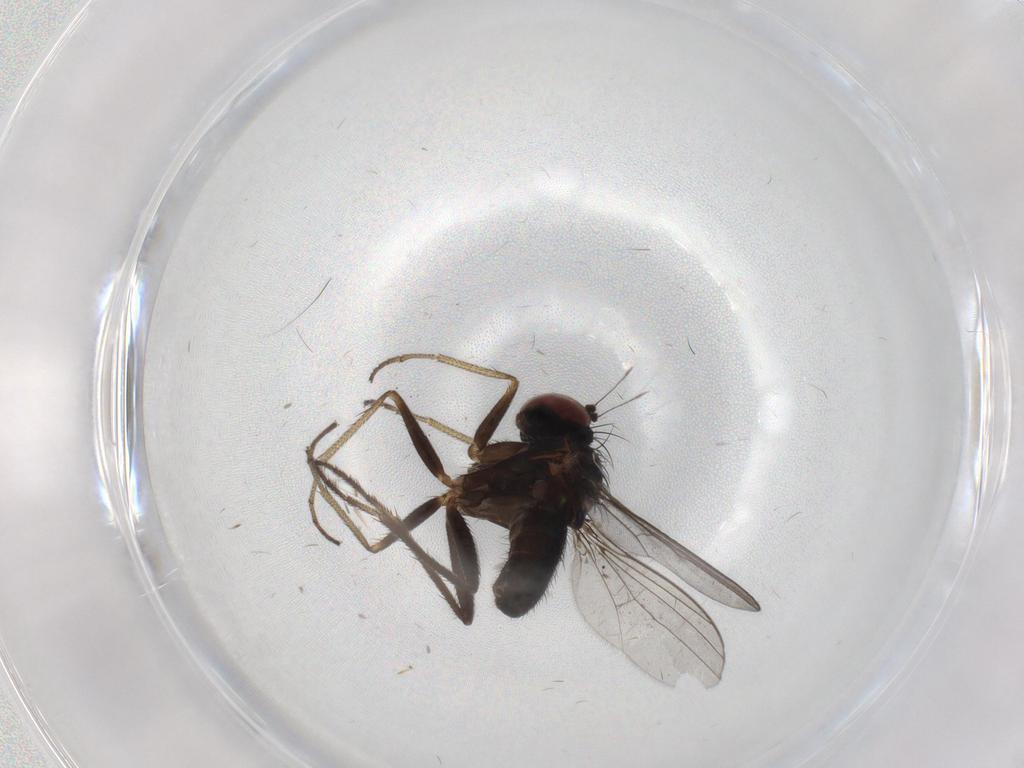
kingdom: Animalia
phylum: Arthropoda
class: Insecta
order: Diptera
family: Dolichopodidae
